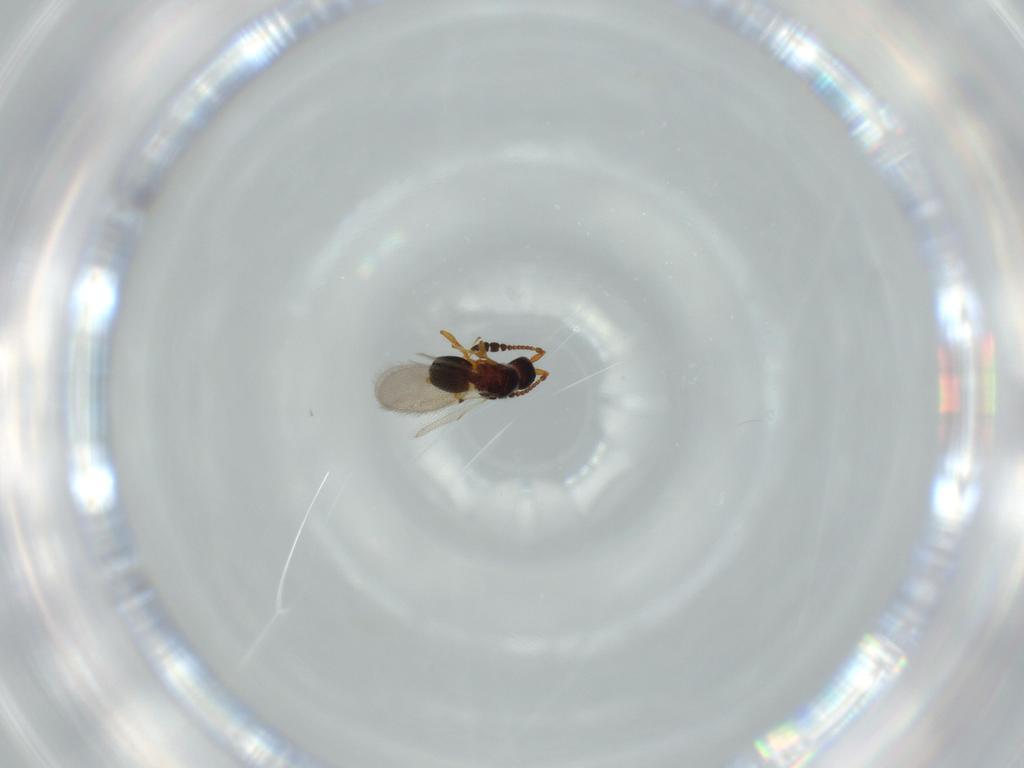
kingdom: Animalia
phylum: Arthropoda
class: Insecta
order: Hymenoptera
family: Diapriidae
